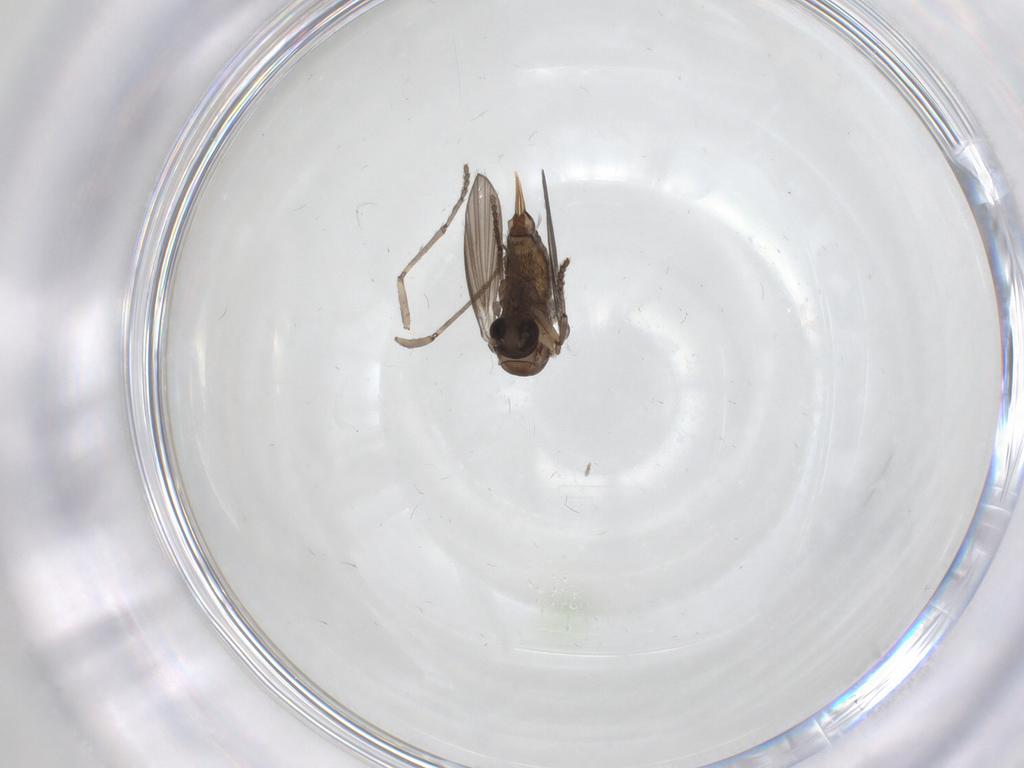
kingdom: Animalia
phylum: Arthropoda
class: Insecta
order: Diptera
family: Psychodidae
